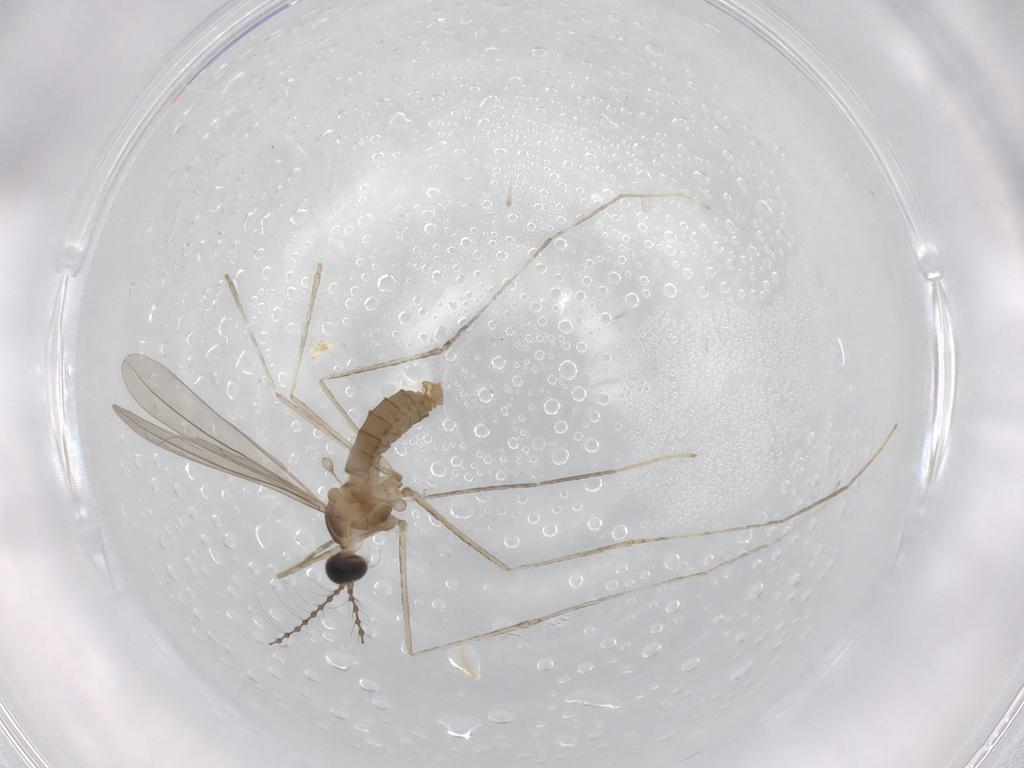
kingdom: Animalia
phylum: Arthropoda
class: Insecta
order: Diptera
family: Cecidomyiidae
